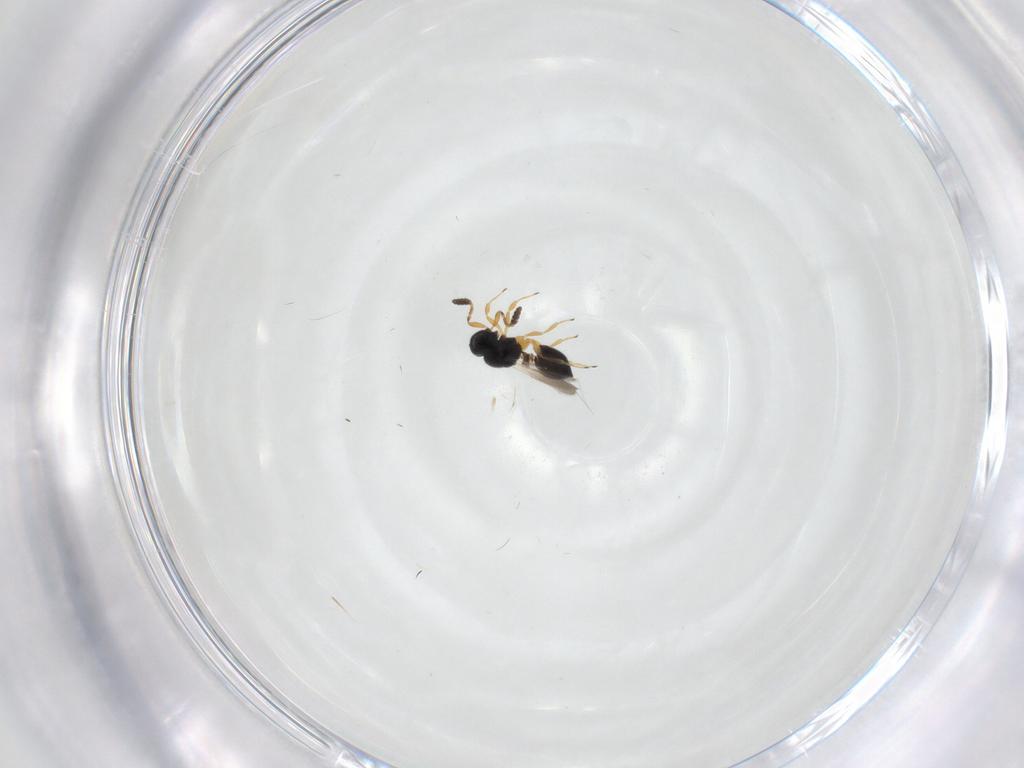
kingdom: Animalia
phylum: Arthropoda
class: Insecta
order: Hymenoptera
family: Scelionidae
